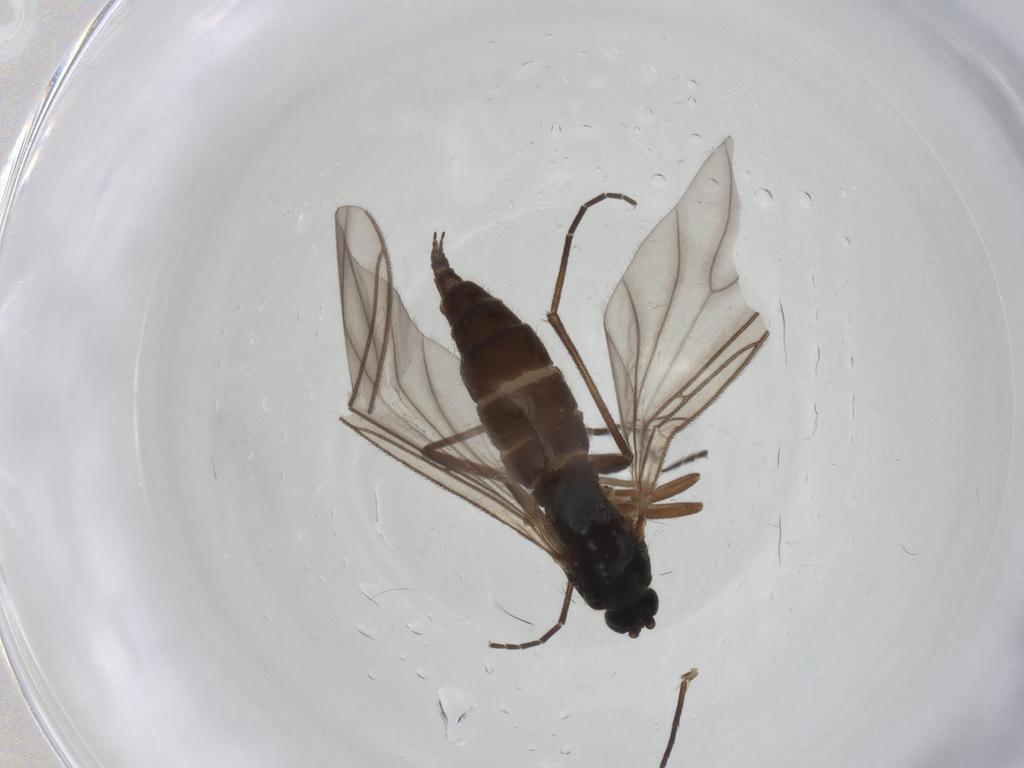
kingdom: Animalia
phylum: Arthropoda
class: Insecta
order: Diptera
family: Sciaridae
